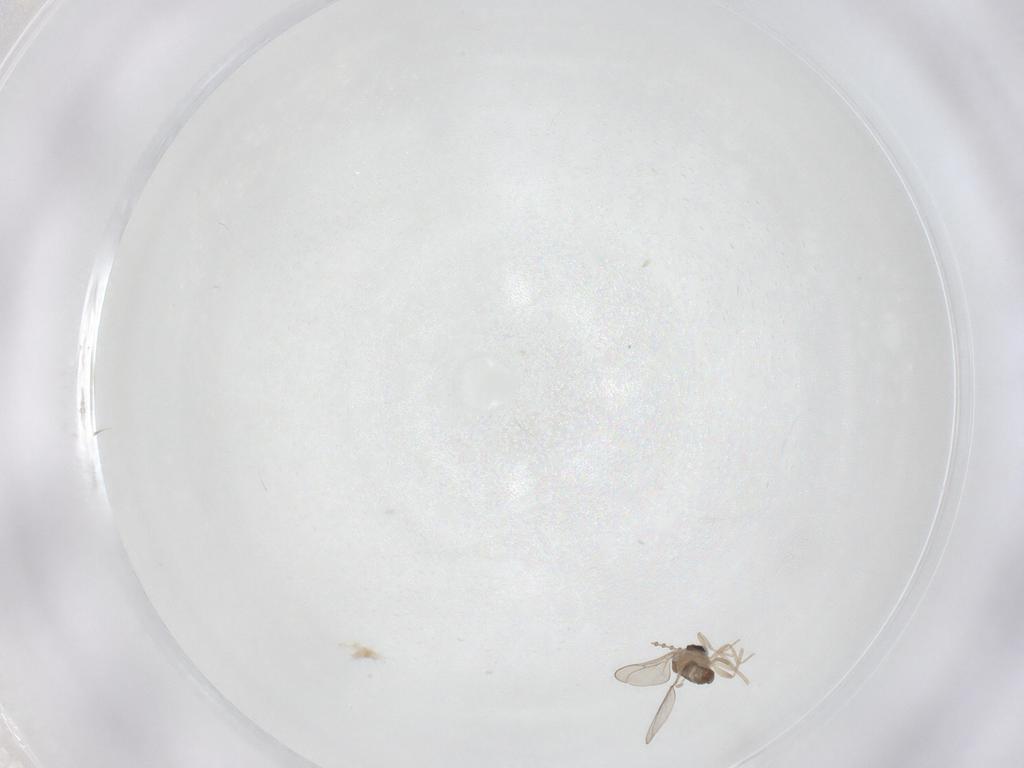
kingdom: Animalia
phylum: Arthropoda
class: Insecta
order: Diptera
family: Cecidomyiidae
